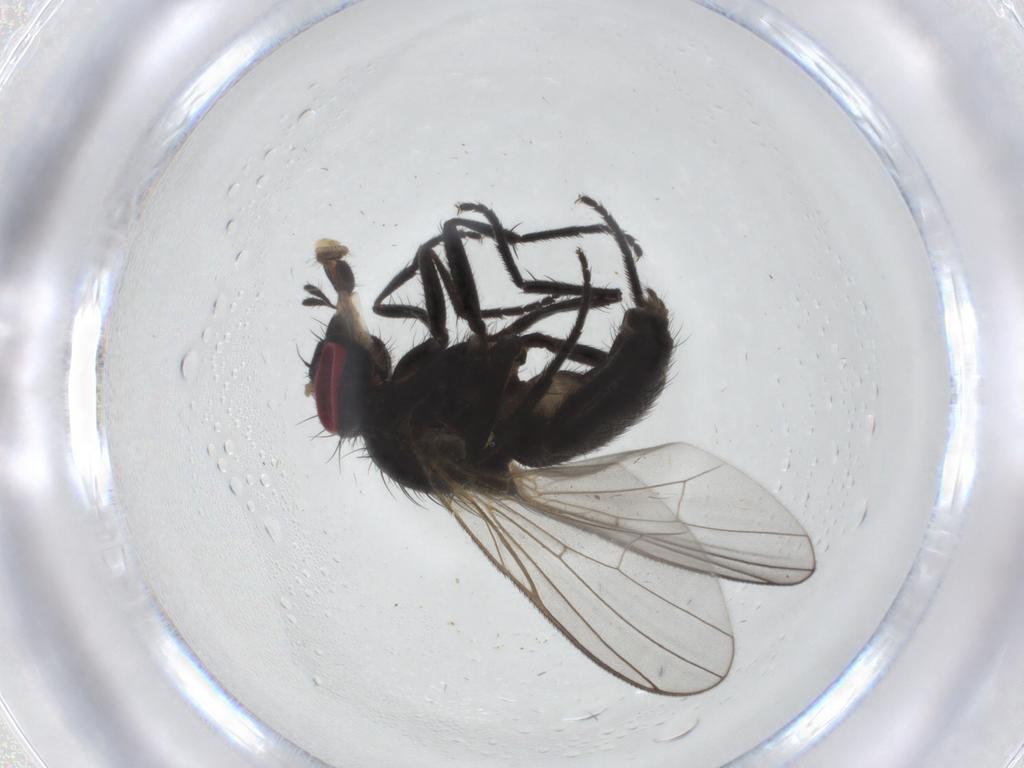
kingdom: Animalia
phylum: Arthropoda
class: Insecta
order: Diptera
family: Fannia
